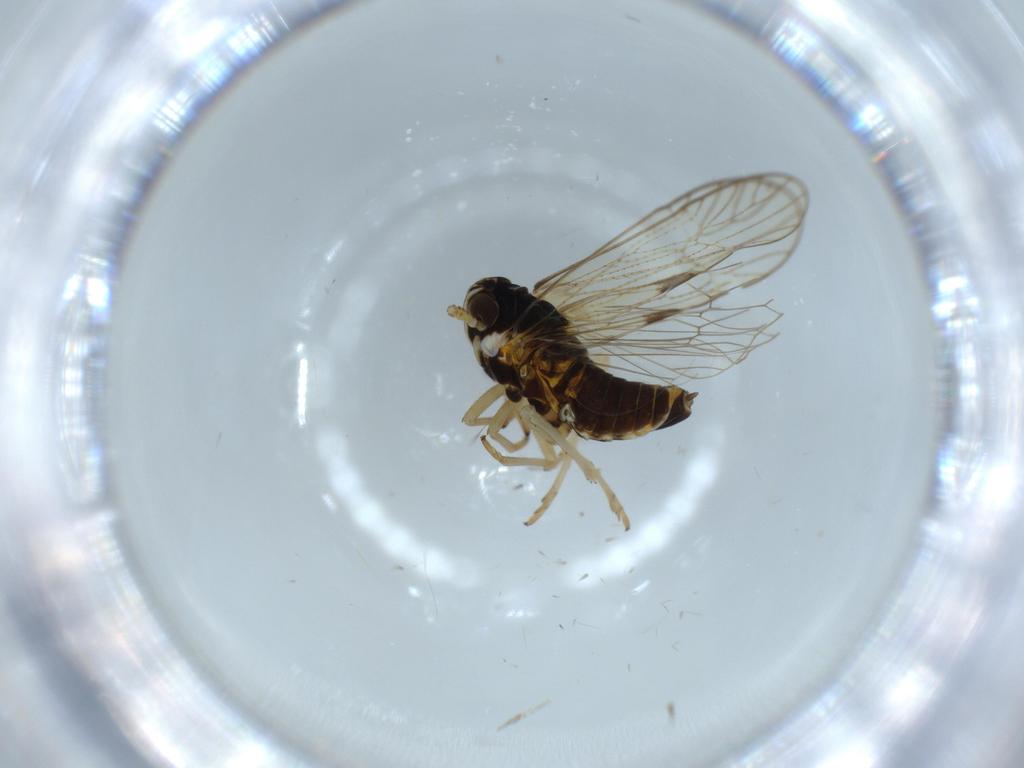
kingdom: Animalia
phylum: Arthropoda
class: Insecta
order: Diptera
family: Cecidomyiidae
